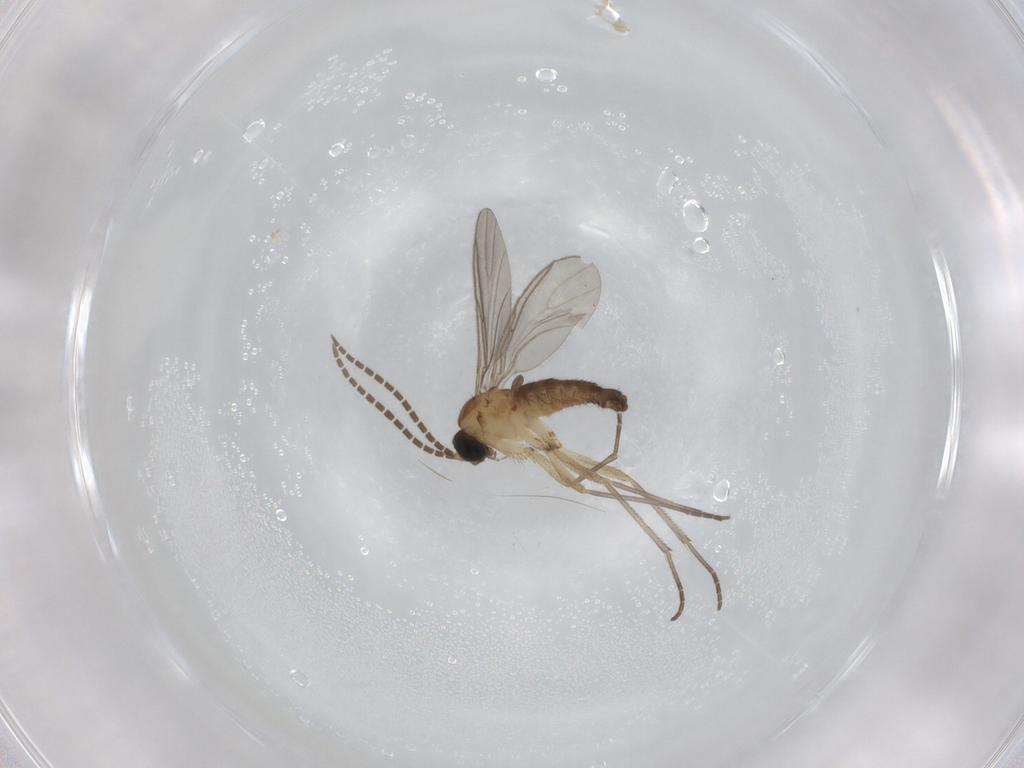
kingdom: Animalia
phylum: Arthropoda
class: Insecta
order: Diptera
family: Sciaridae
